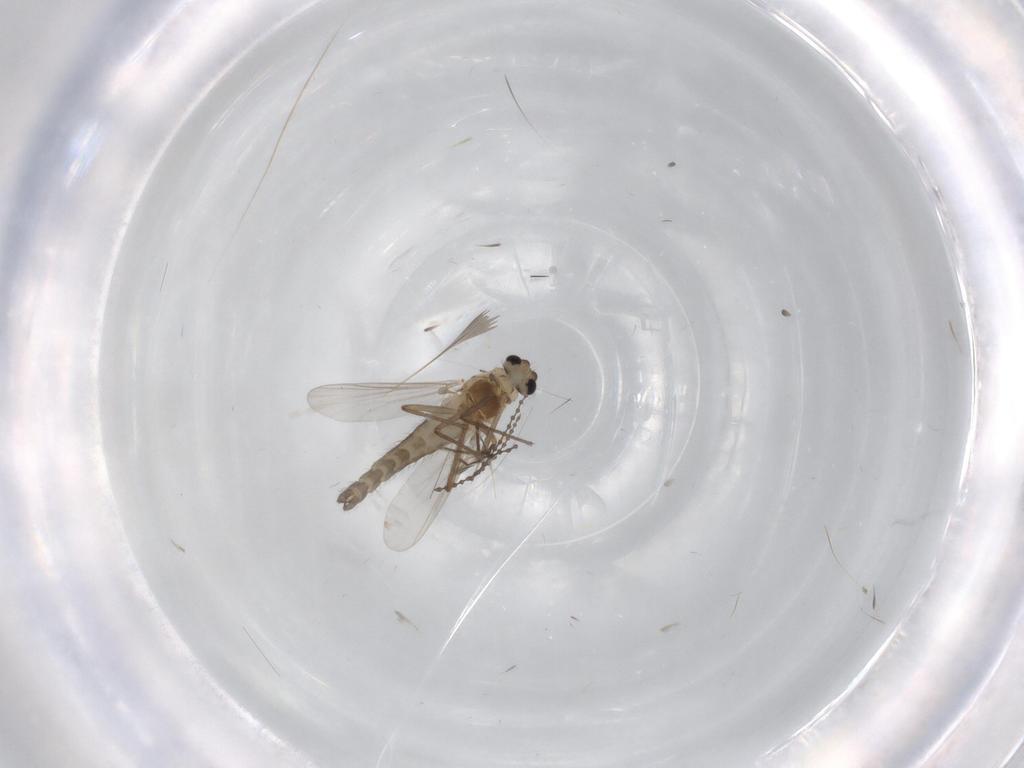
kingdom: Animalia
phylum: Arthropoda
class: Insecta
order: Diptera
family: Chironomidae
